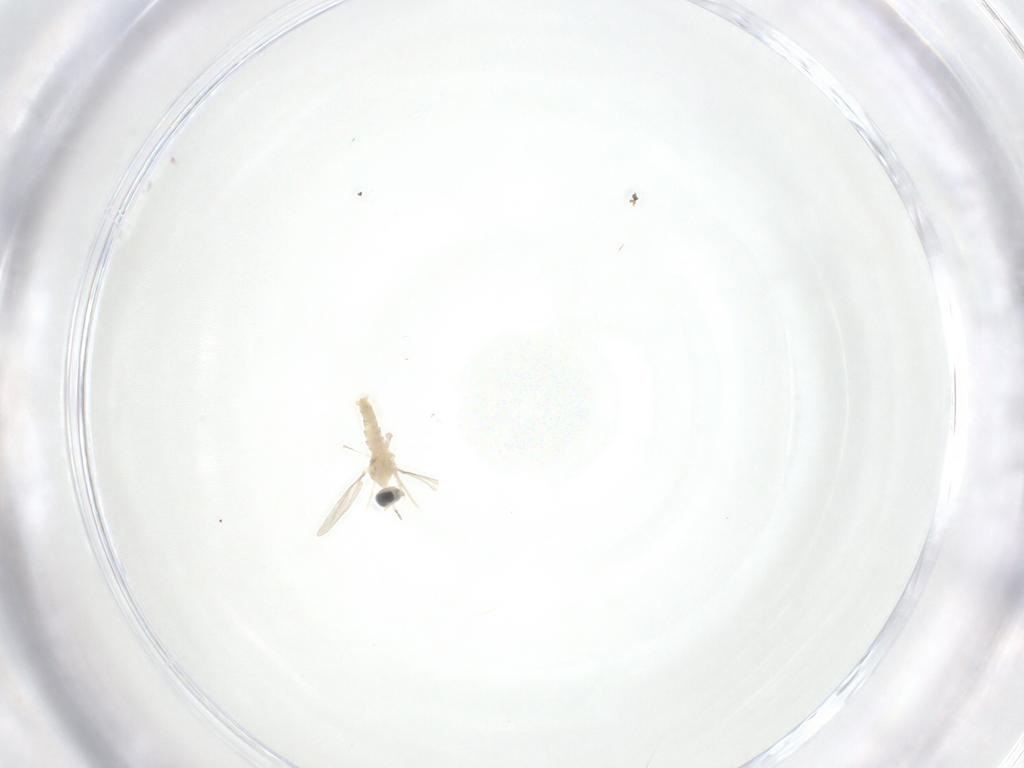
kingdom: Animalia
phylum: Arthropoda
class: Insecta
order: Diptera
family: Cecidomyiidae
